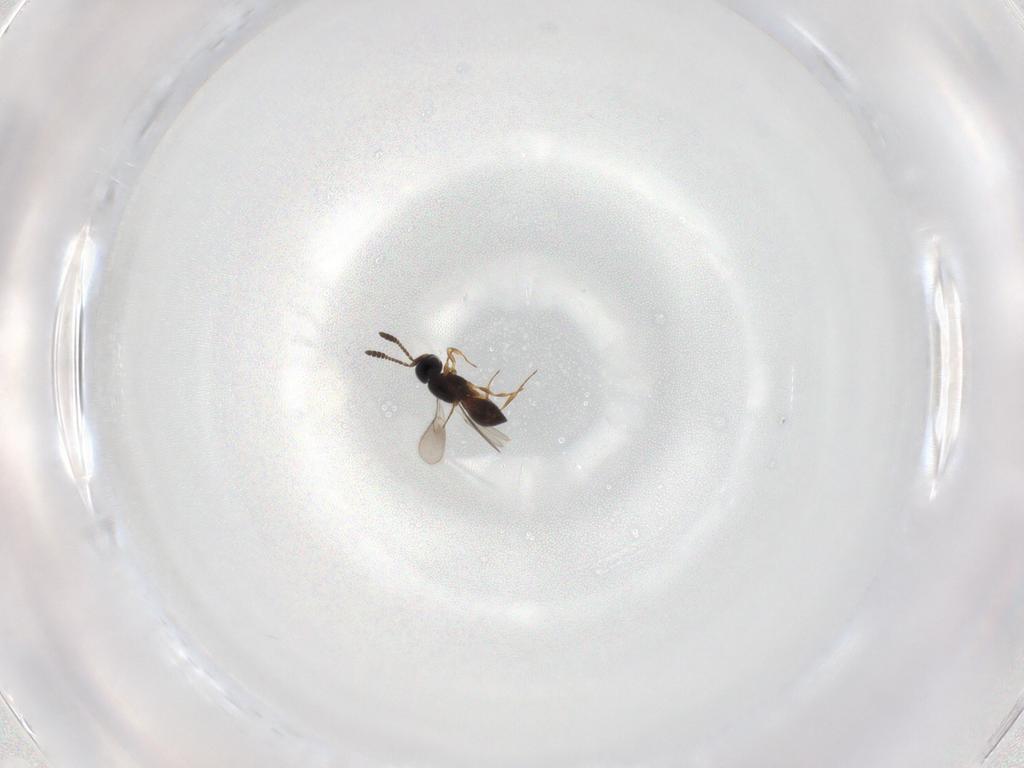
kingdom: Animalia
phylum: Arthropoda
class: Insecta
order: Hymenoptera
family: Scelionidae
